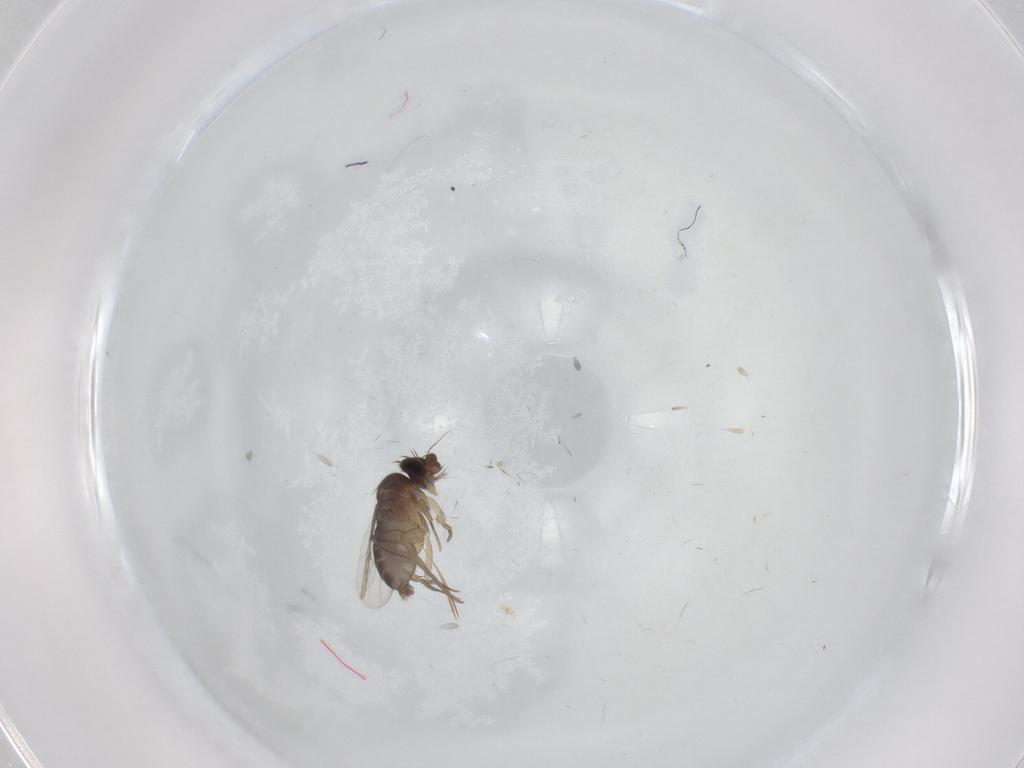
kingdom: Animalia
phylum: Arthropoda
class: Insecta
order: Diptera
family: Phoridae
